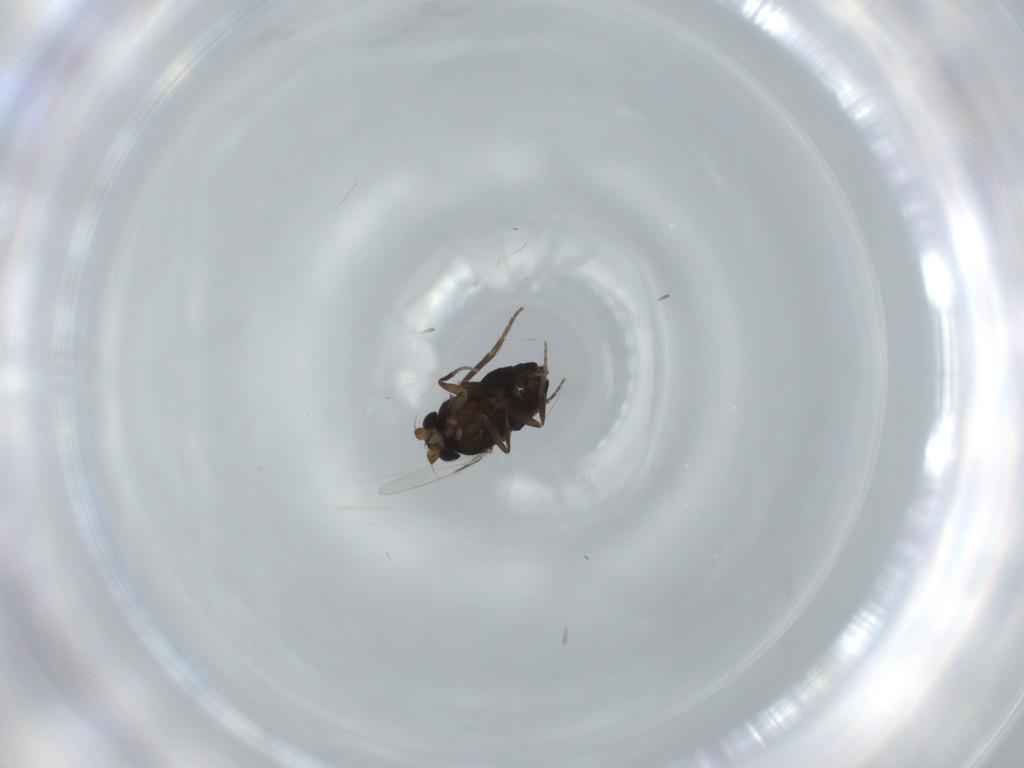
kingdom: Animalia
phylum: Arthropoda
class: Insecta
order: Diptera
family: Phoridae
